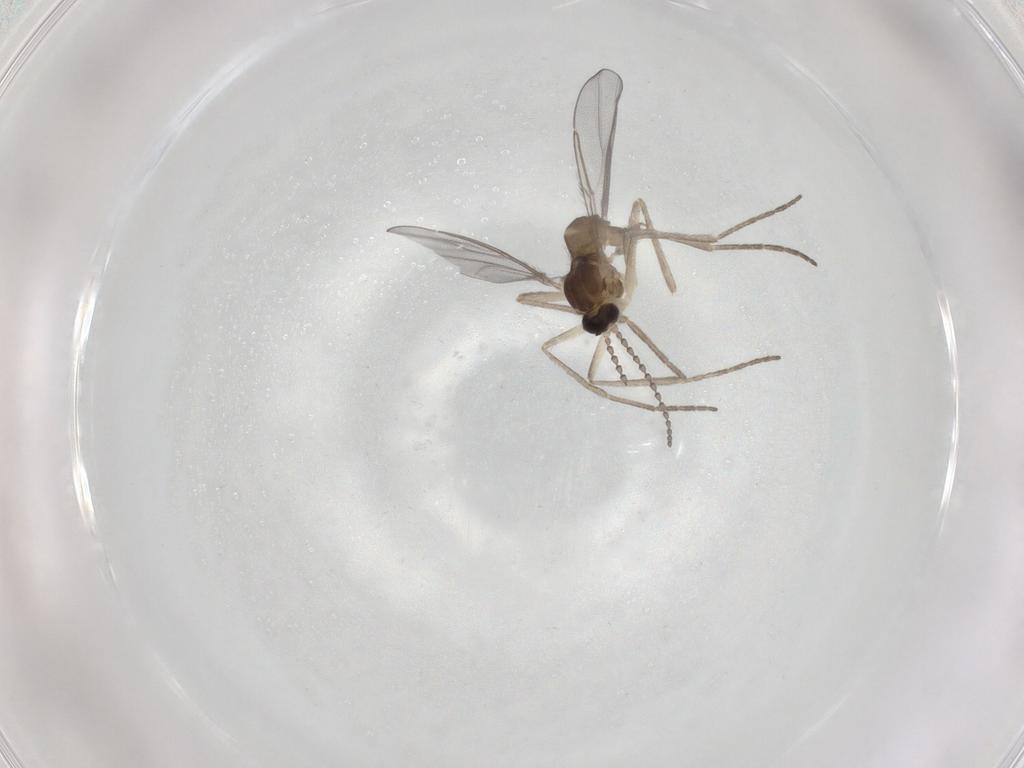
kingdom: Animalia
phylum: Arthropoda
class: Insecta
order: Diptera
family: Cecidomyiidae
